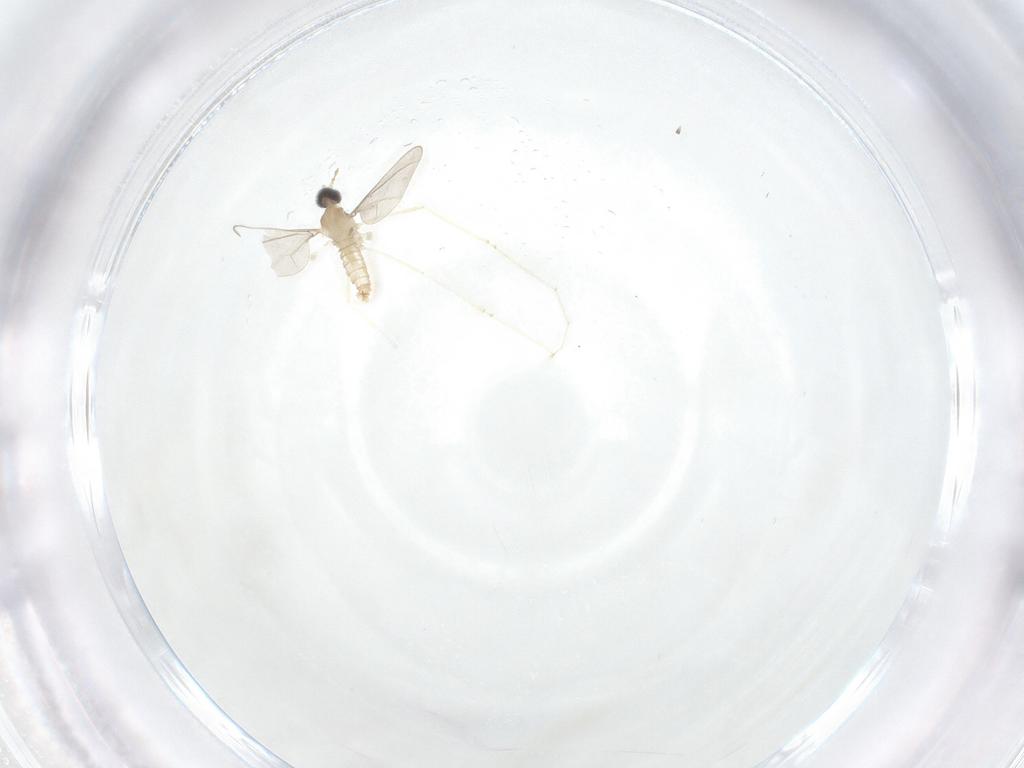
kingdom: Animalia
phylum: Arthropoda
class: Insecta
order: Diptera
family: Cecidomyiidae
